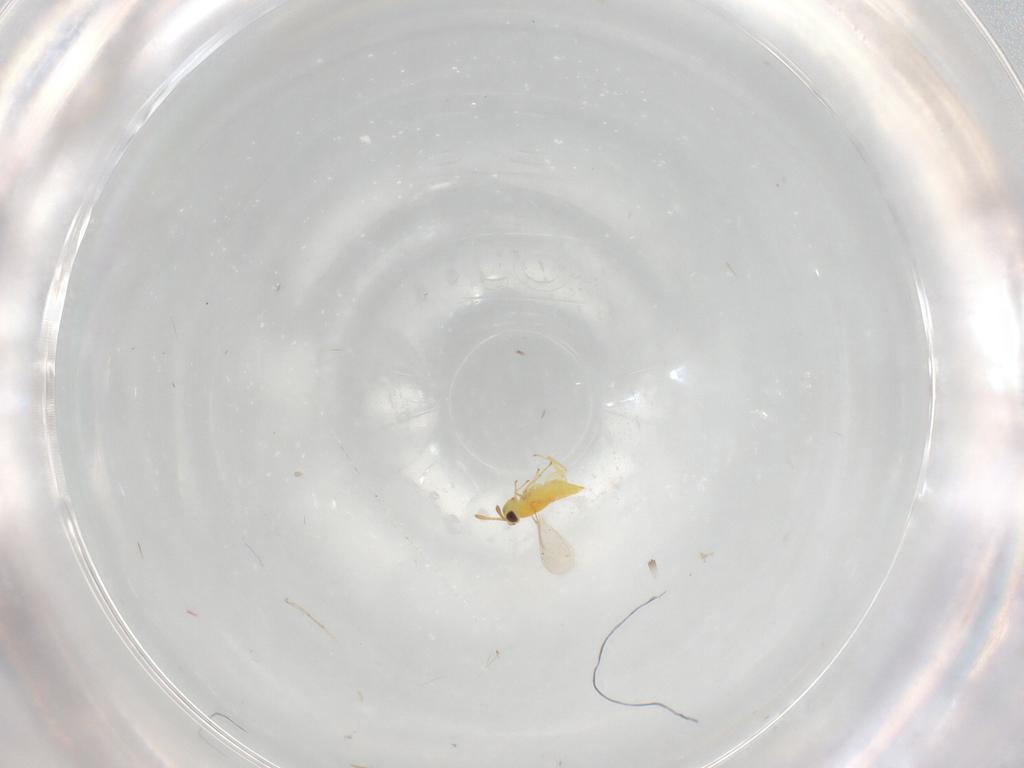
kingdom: Animalia
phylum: Arthropoda
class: Insecta
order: Hymenoptera
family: Aphelinidae
